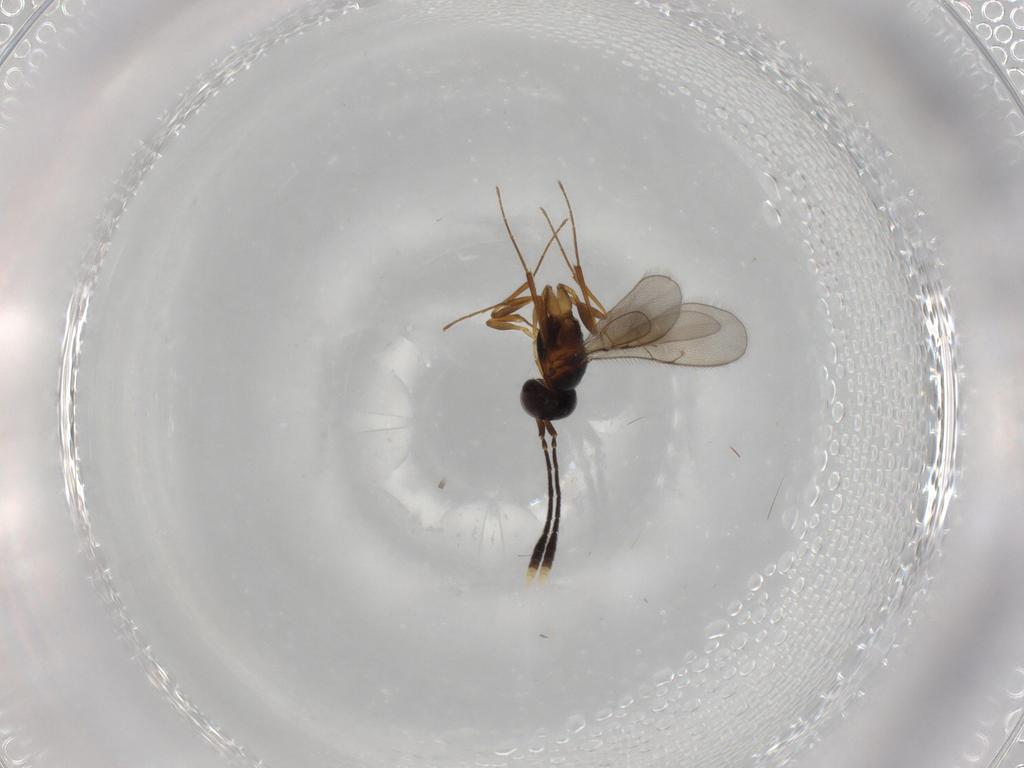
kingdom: Animalia
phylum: Arthropoda
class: Insecta
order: Hymenoptera
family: Scelionidae
